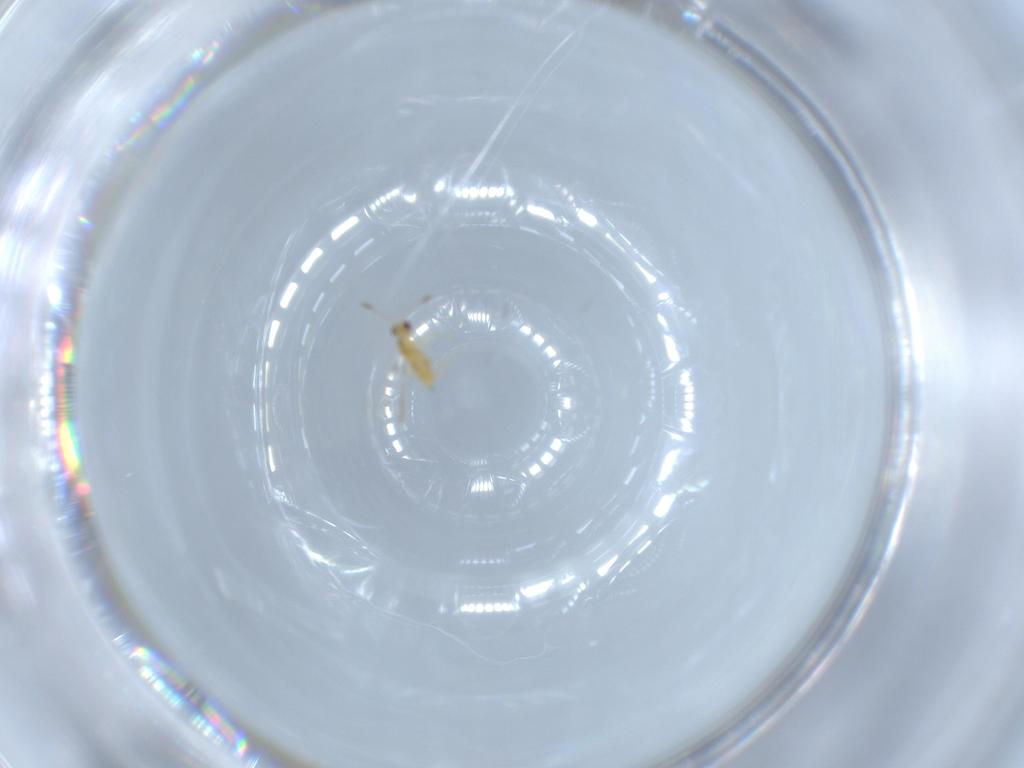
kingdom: Animalia
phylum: Arthropoda
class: Insecta
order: Hymenoptera
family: Mymaridae
